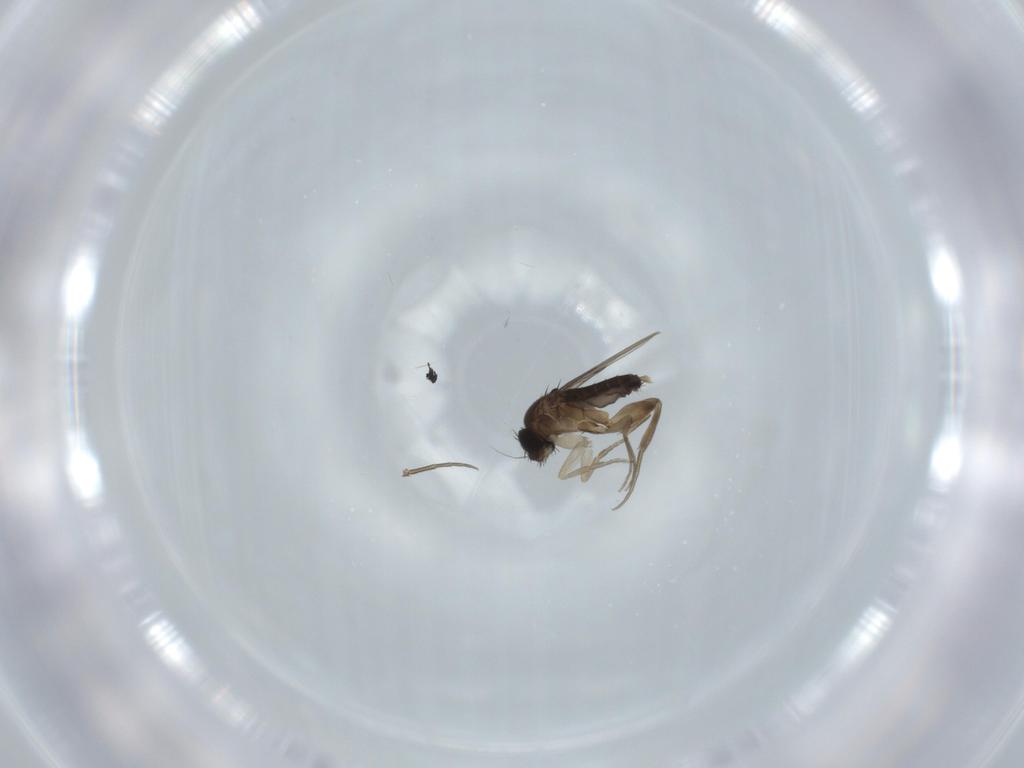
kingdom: Animalia
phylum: Arthropoda
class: Insecta
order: Diptera
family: Phoridae
